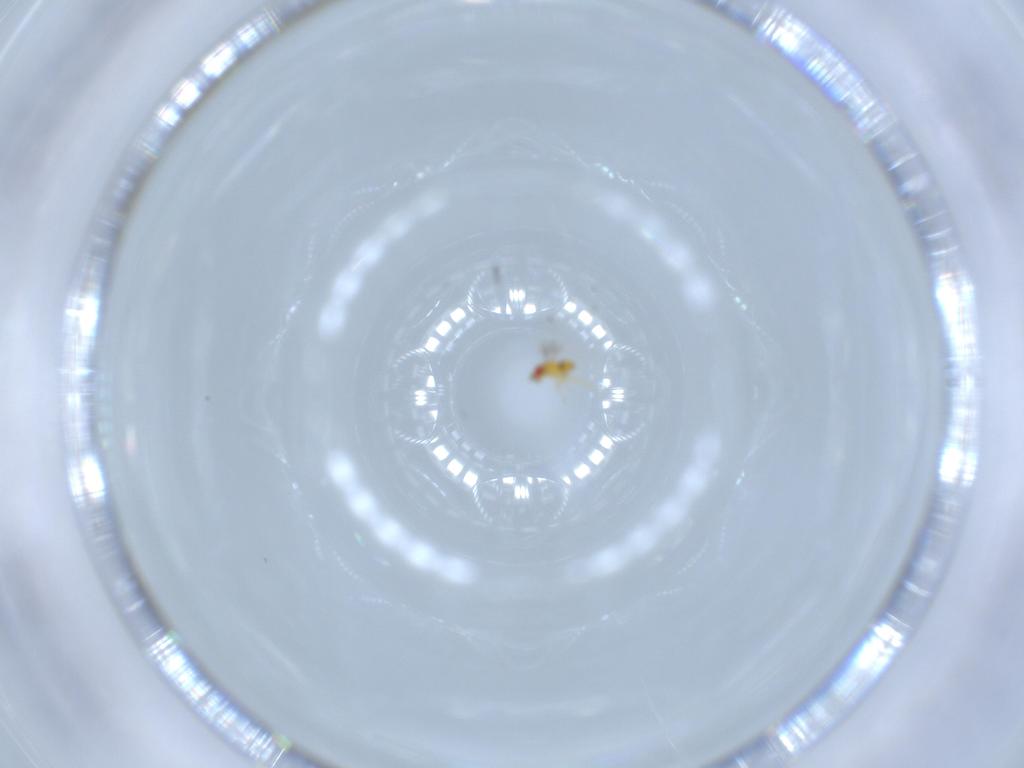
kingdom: Animalia
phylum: Arthropoda
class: Insecta
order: Hymenoptera
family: Trichogrammatidae
